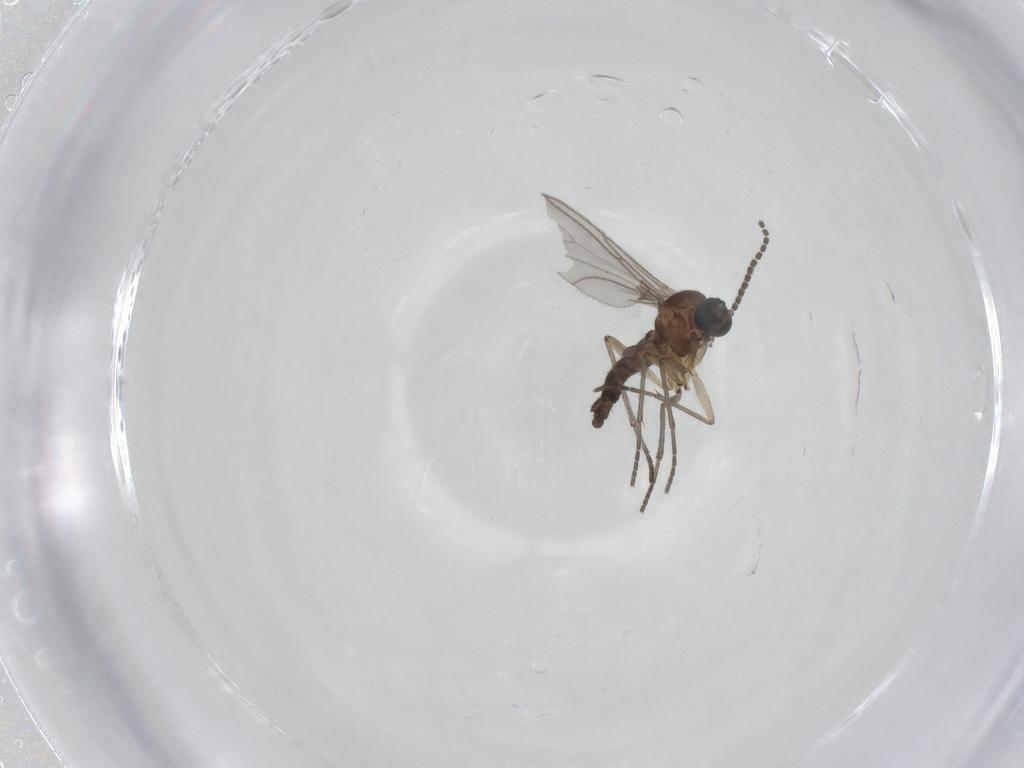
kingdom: Animalia
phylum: Arthropoda
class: Insecta
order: Diptera
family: Sciaridae
